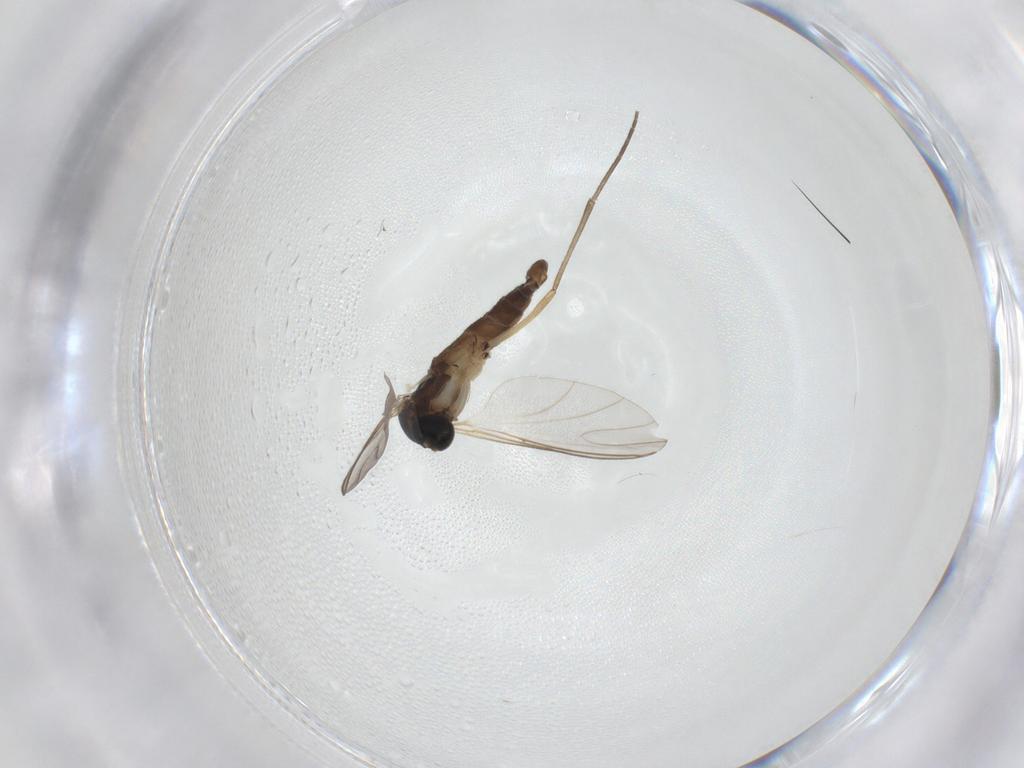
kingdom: Animalia
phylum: Arthropoda
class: Insecta
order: Diptera
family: Sciaridae
